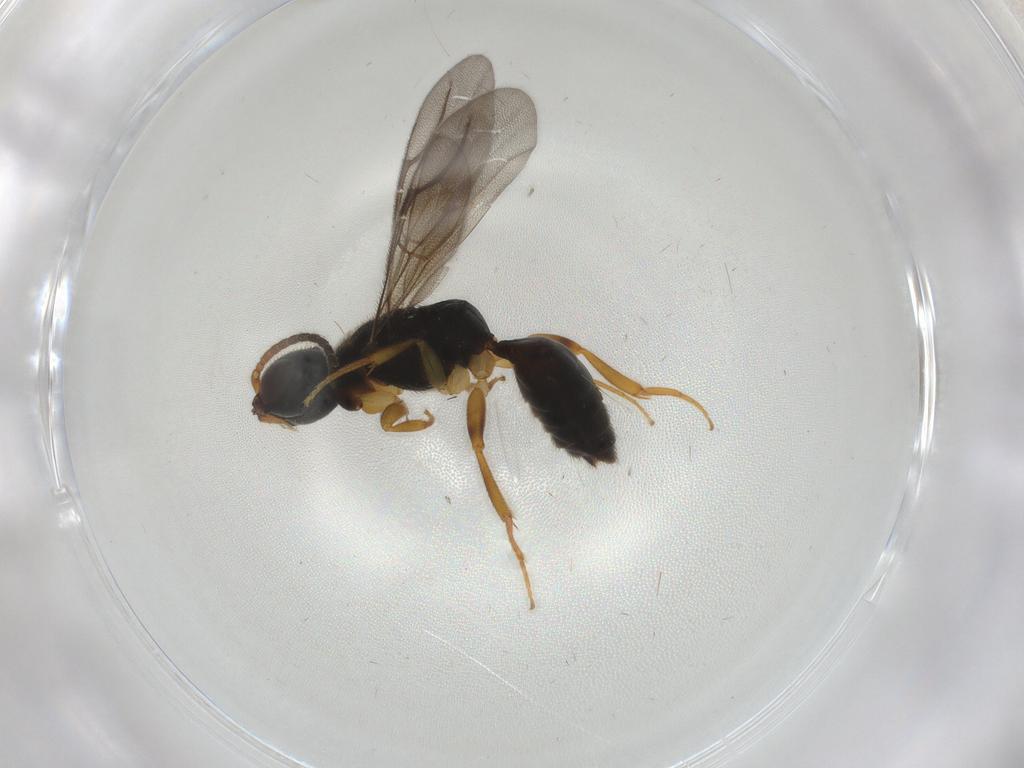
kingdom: Animalia
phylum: Arthropoda
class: Insecta
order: Hymenoptera
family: Bethylidae
